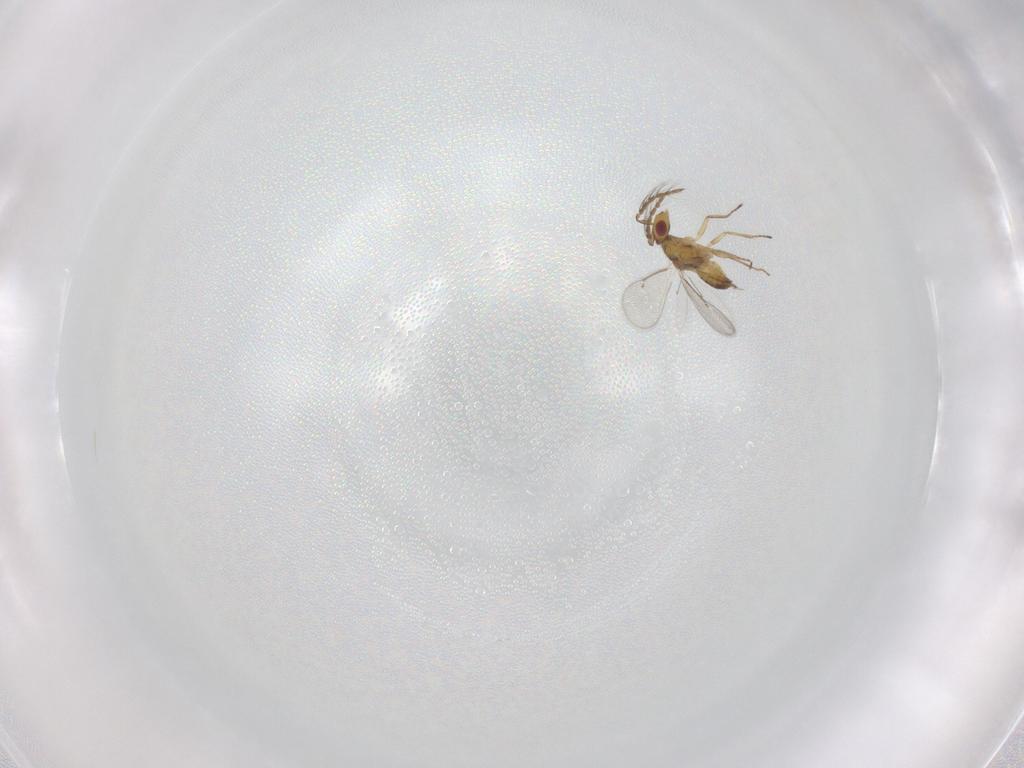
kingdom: Animalia
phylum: Arthropoda
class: Insecta
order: Hymenoptera
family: Eulophidae
